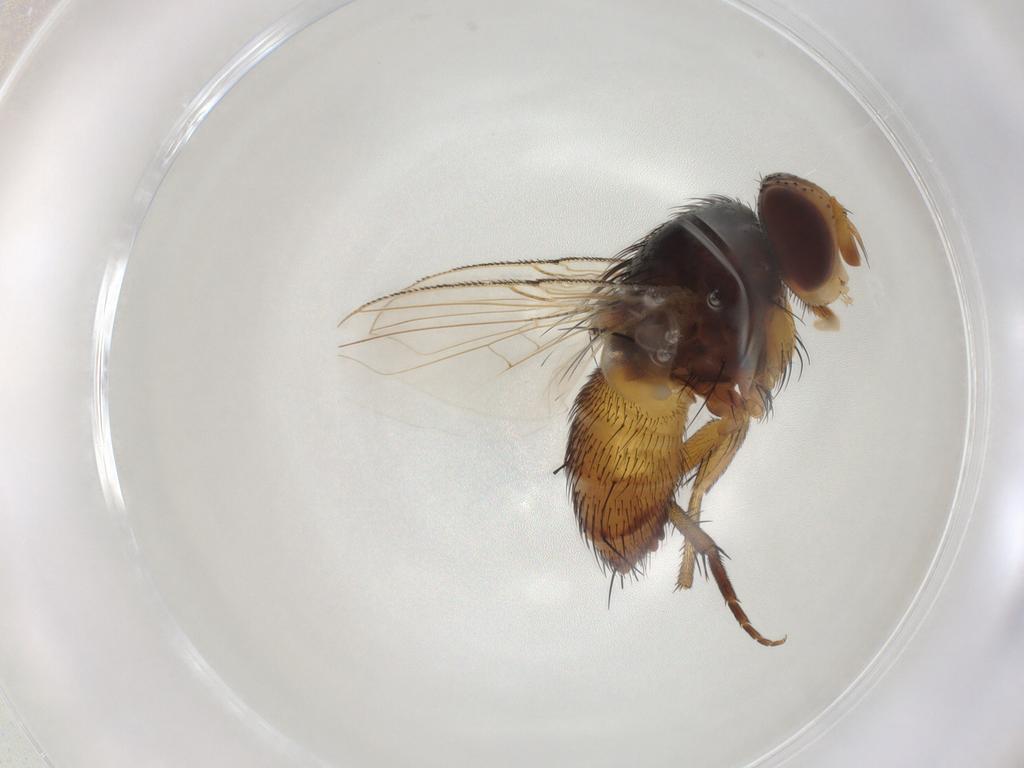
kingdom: Animalia
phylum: Arthropoda
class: Insecta
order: Diptera
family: Tachinidae
